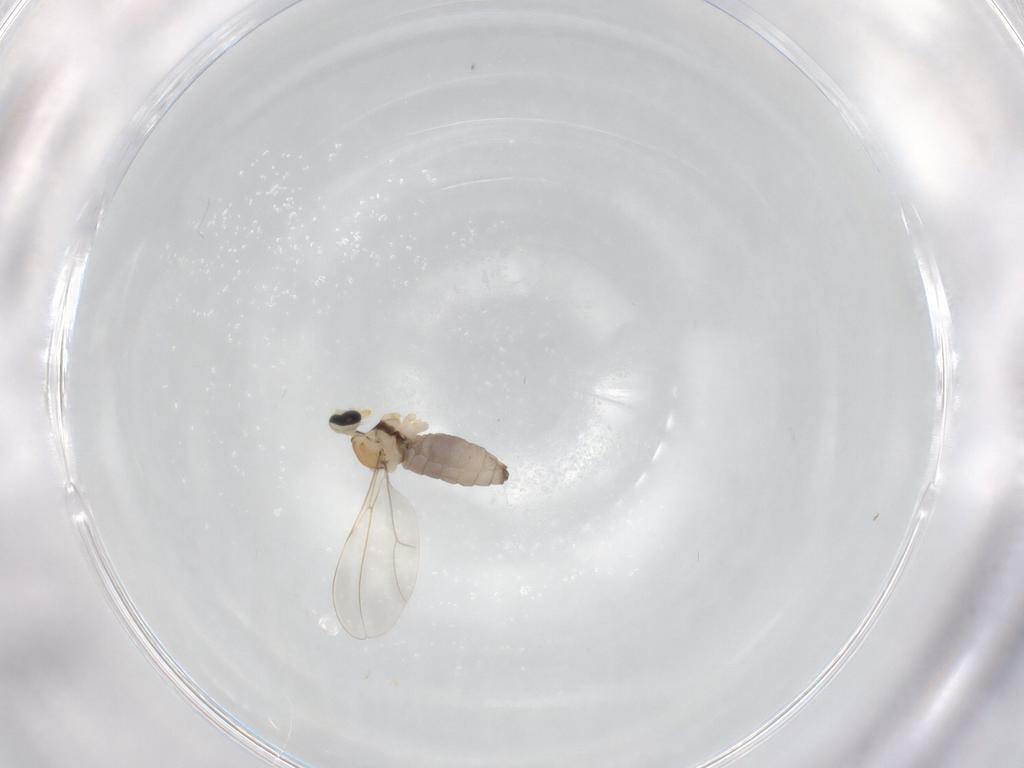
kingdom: Animalia
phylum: Arthropoda
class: Insecta
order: Diptera
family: Cecidomyiidae
